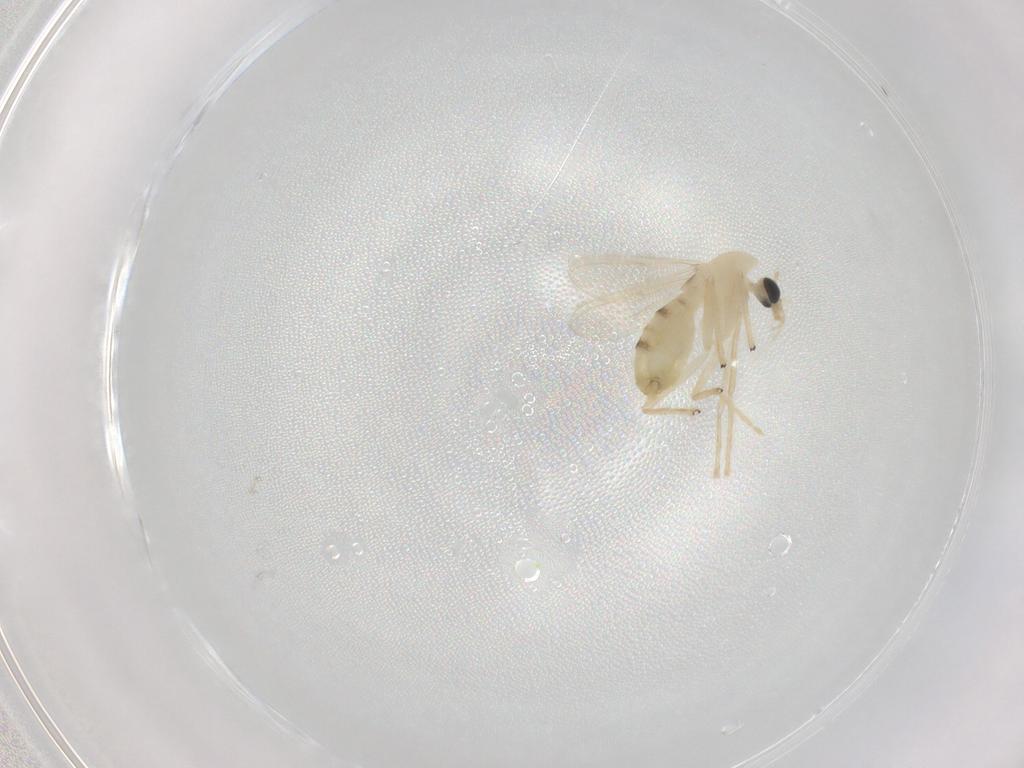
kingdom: Animalia
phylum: Arthropoda
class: Insecta
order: Diptera
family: Chironomidae
